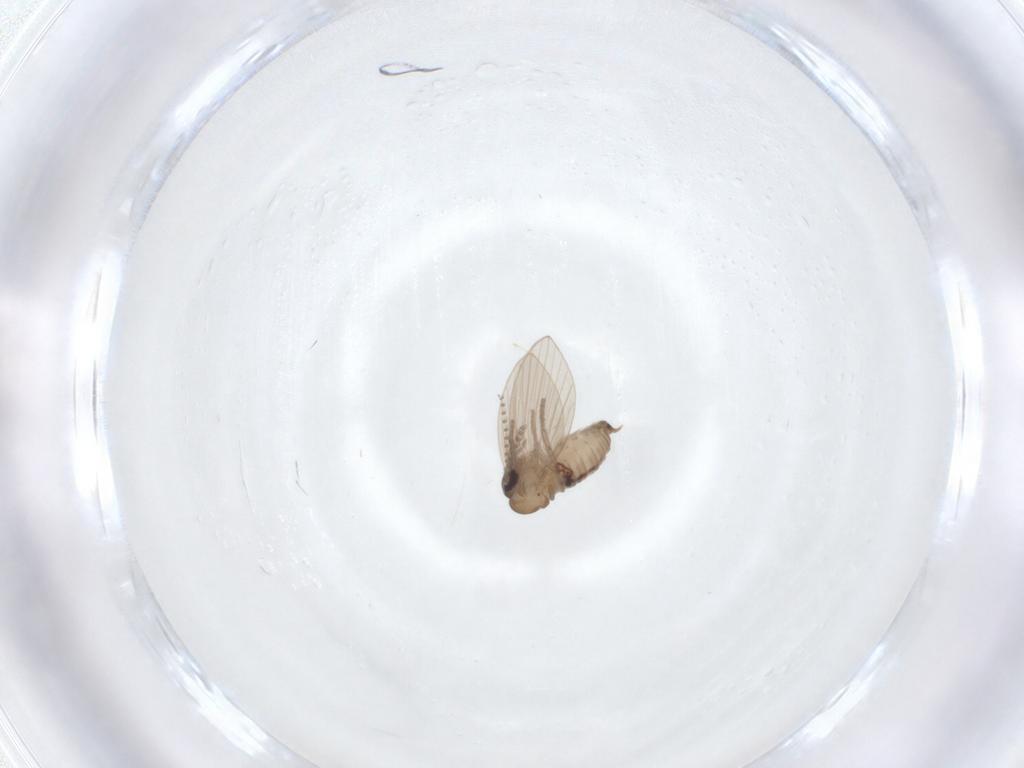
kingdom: Animalia
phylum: Arthropoda
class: Insecta
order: Diptera
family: Psychodidae
